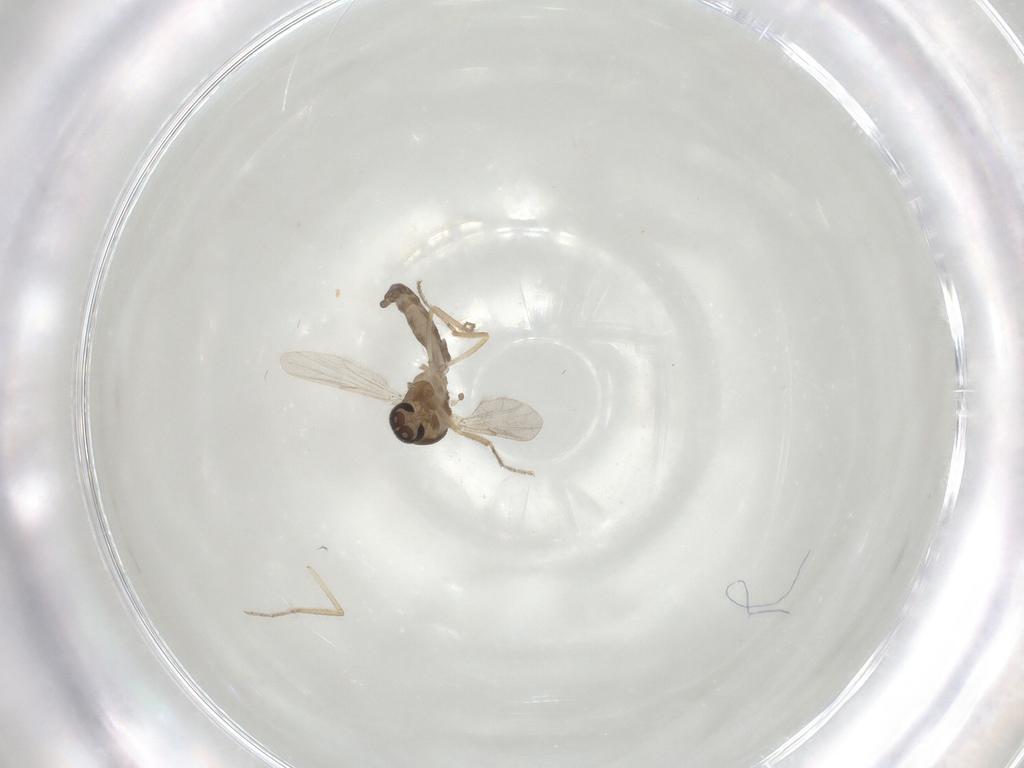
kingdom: Animalia
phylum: Arthropoda
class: Insecta
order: Diptera
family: Ceratopogonidae
